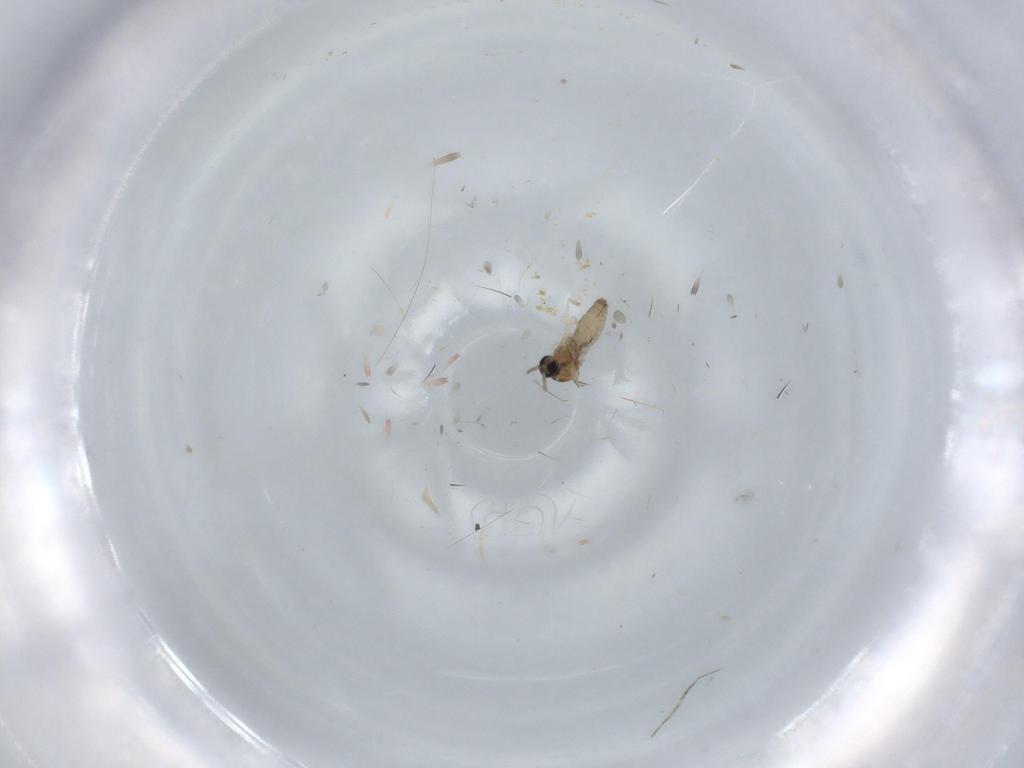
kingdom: Animalia
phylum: Arthropoda
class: Insecta
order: Diptera
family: Cecidomyiidae
